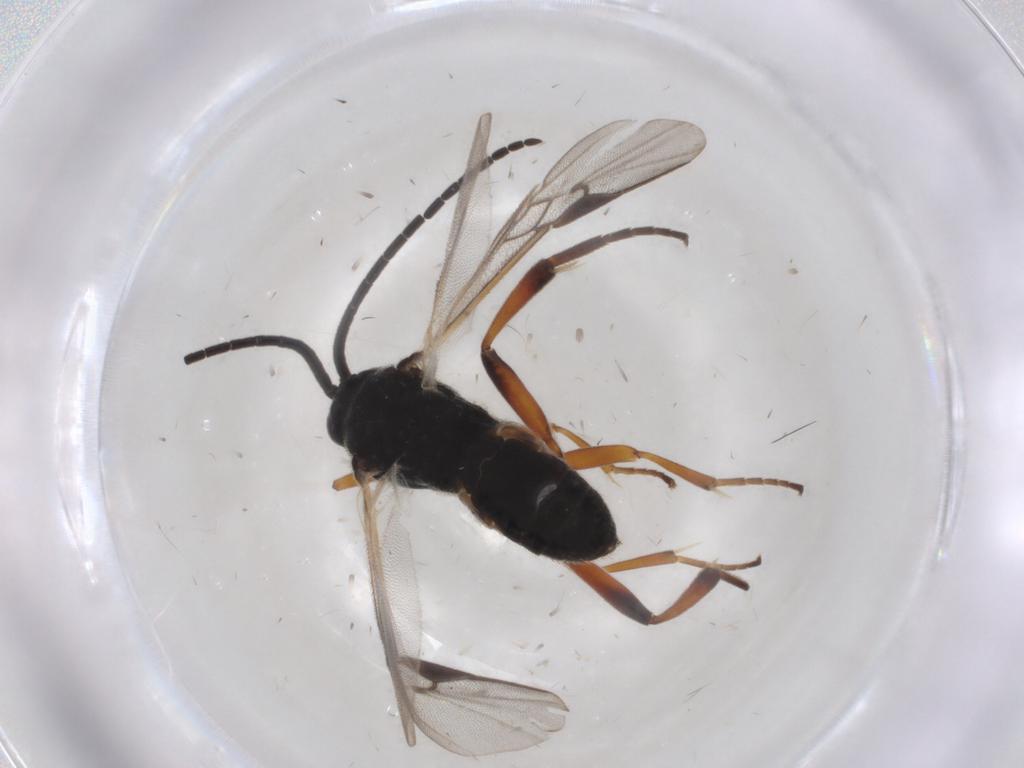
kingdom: Animalia
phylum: Arthropoda
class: Insecta
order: Hymenoptera
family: Braconidae
